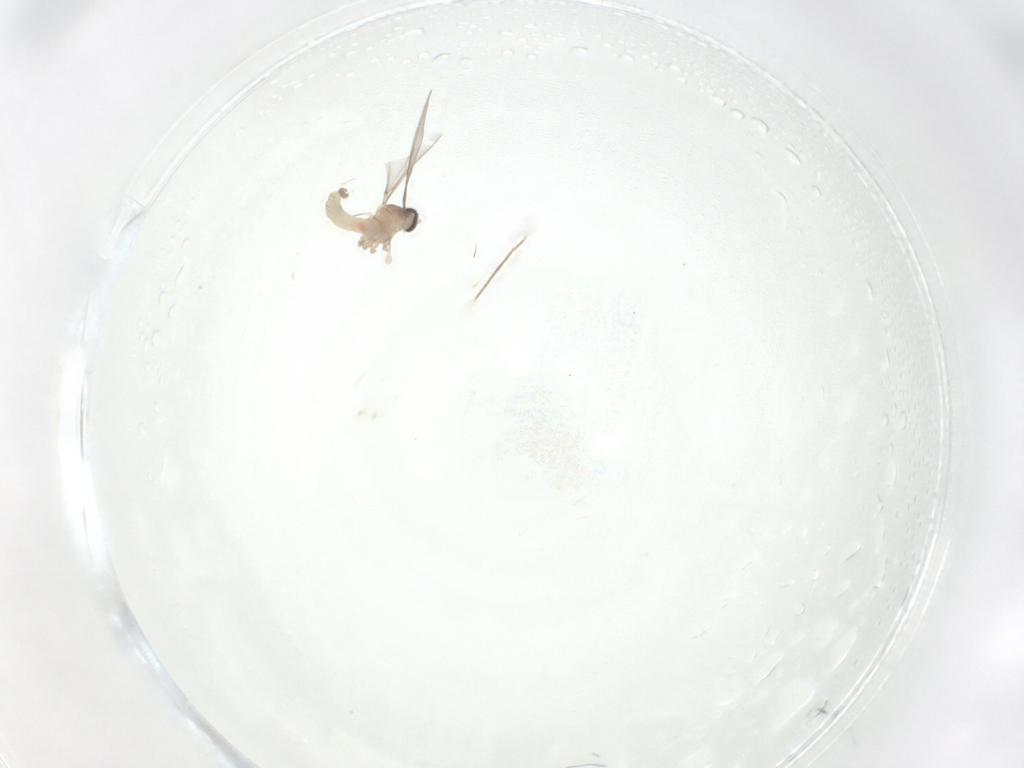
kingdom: Animalia
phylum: Arthropoda
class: Insecta
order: Diptera
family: Cecidomyiidae
